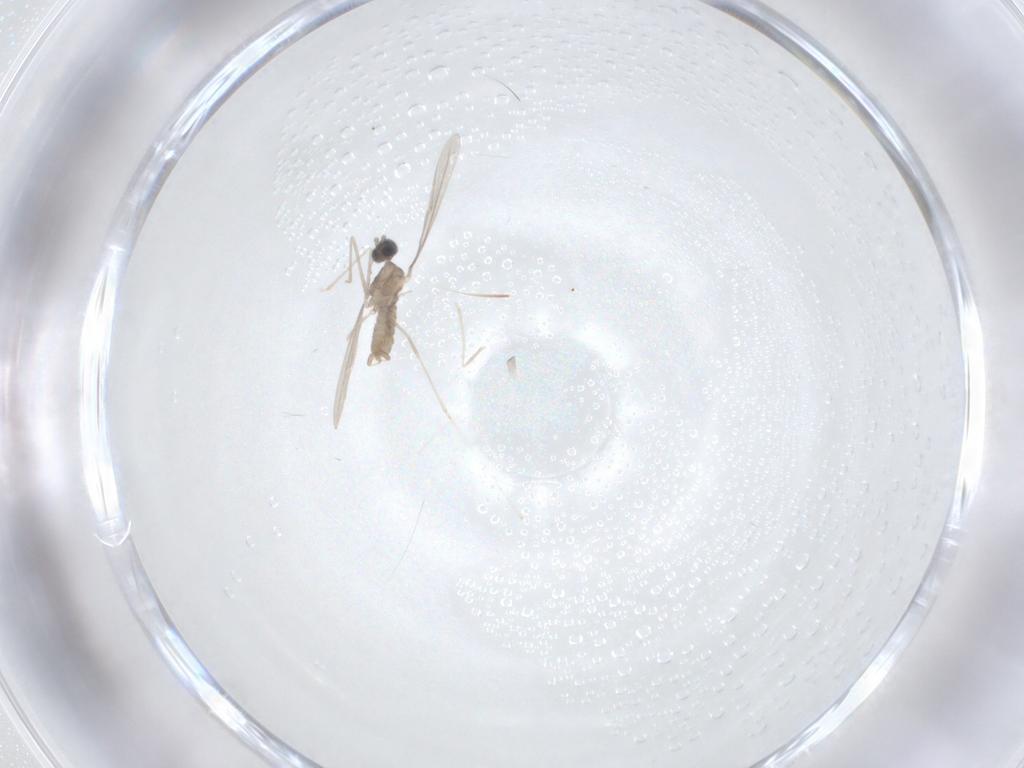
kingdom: Animalia
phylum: Arthropoda
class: Insecta
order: Diptera
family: Cecidomyiidae
